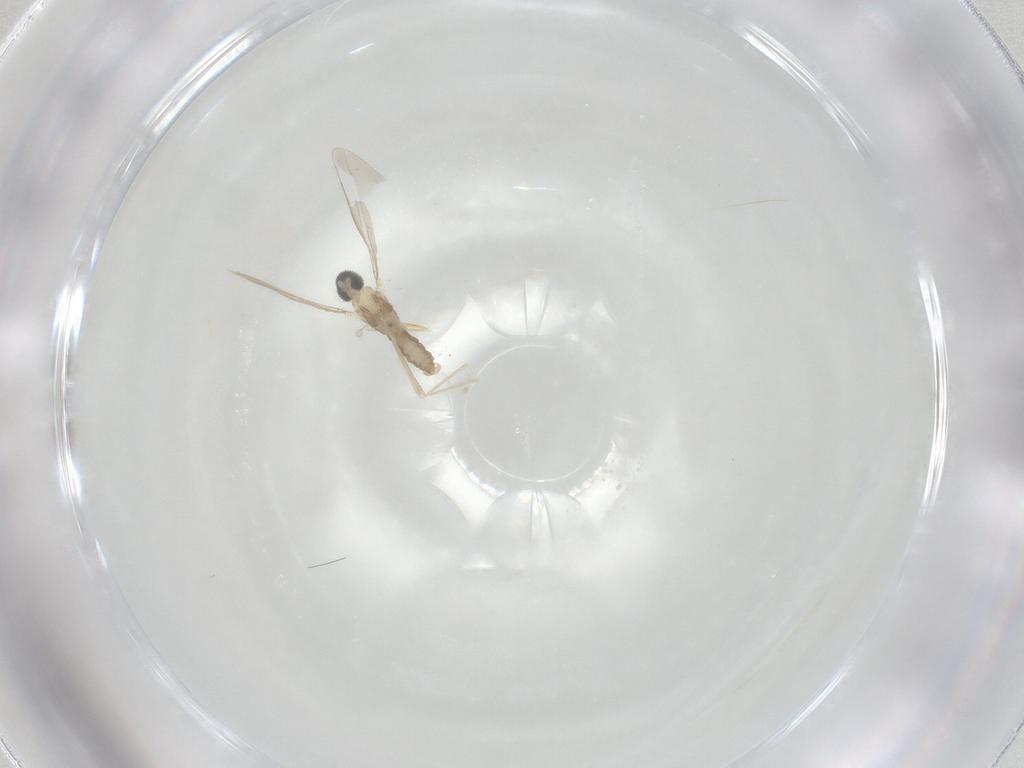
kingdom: Animalia
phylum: Arthropoda
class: Insecta
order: Diptera
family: Cecidomyiidae
